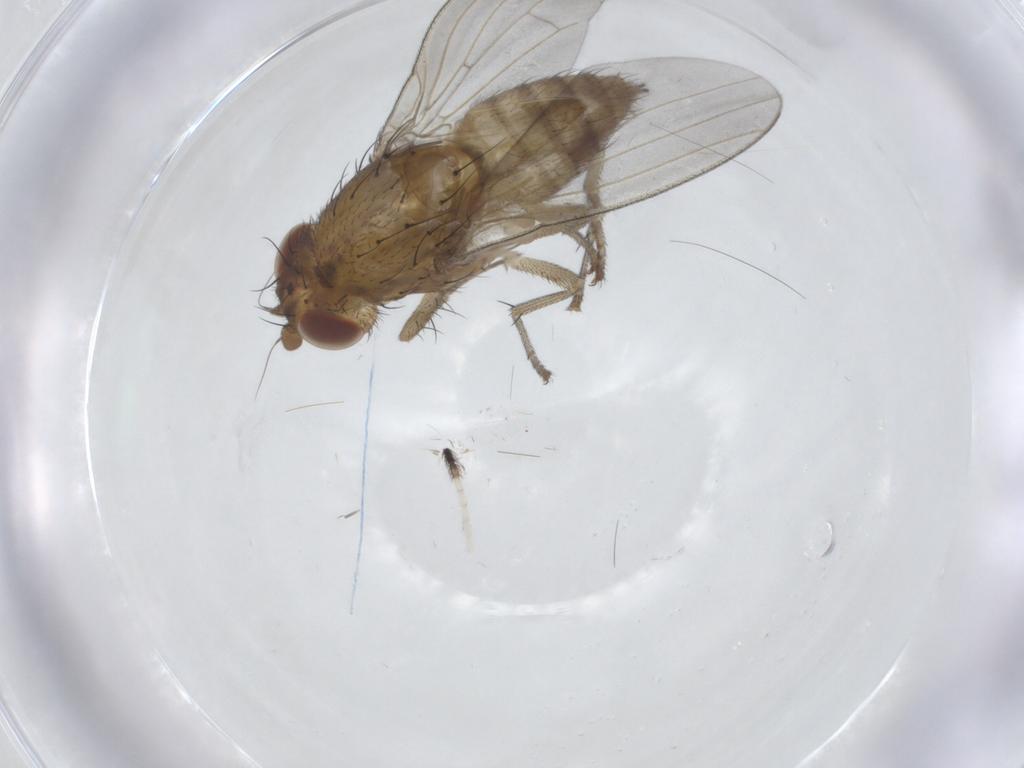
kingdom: Animalia
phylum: Arthropoda
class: Insecta
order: Diptera
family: Lauxaniidae
